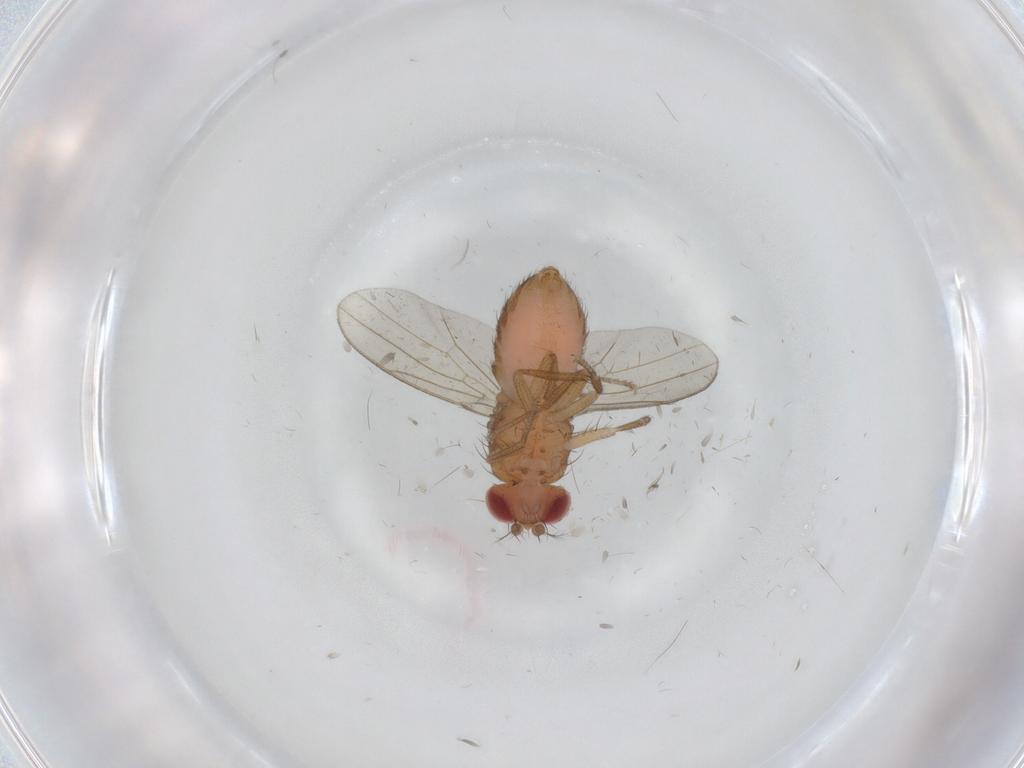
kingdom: Animalia
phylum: Arthropoda
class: Insecta
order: Diptera
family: Drosophilidae
